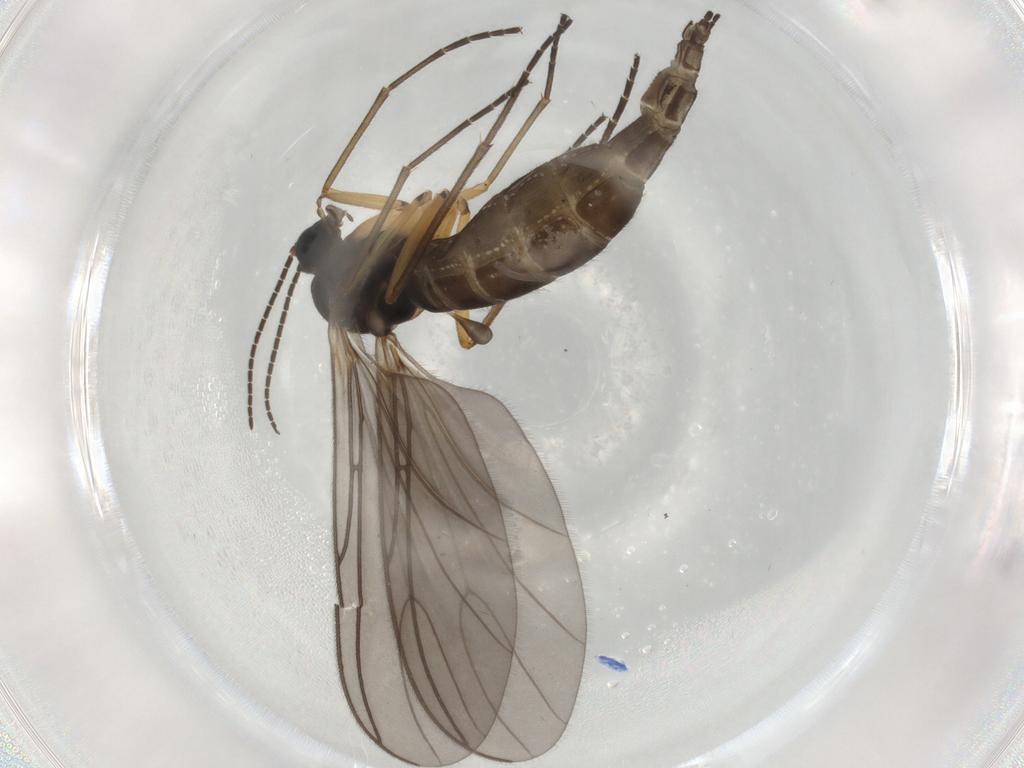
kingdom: Animalia
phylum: Arthropoda
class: Insecta
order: Diptera
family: Sciaridae
